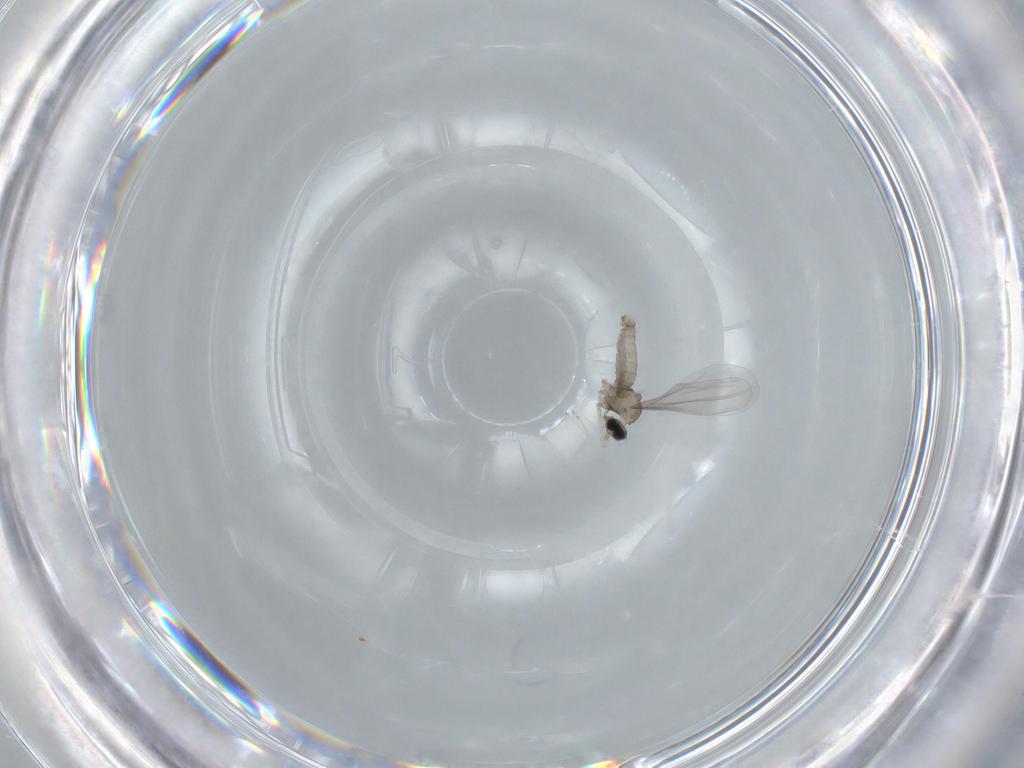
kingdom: Animalia
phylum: Arthropoda
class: Insecta
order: Diptera
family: Cecidomyiidae
